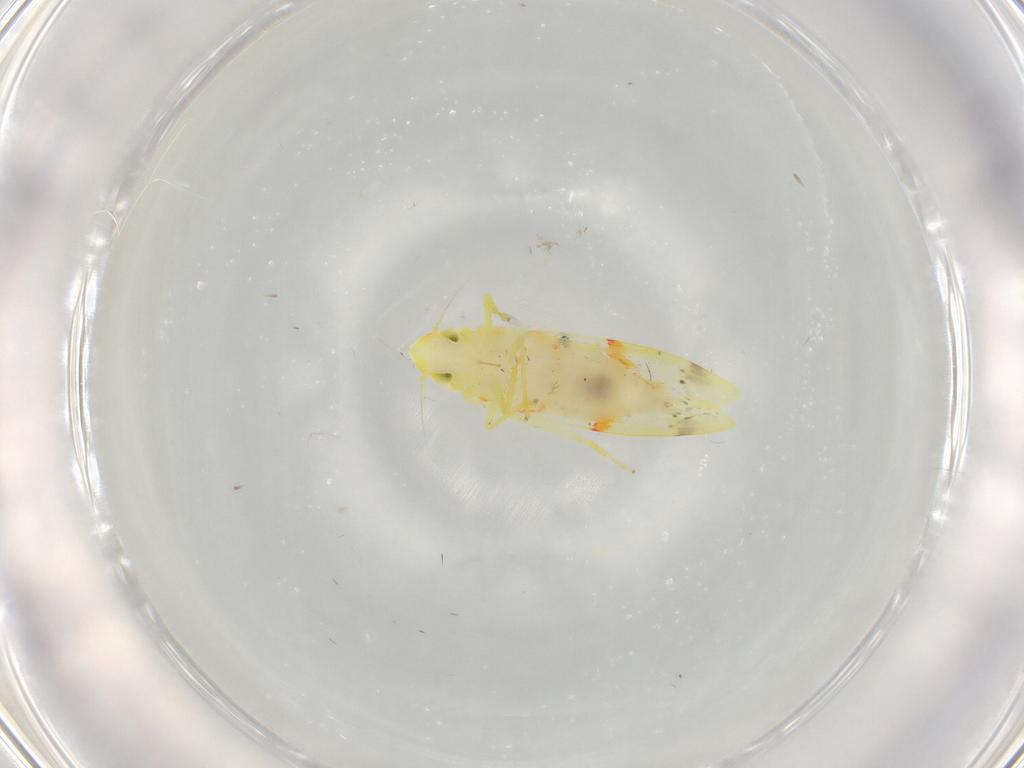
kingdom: Animalia
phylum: Arthropoda
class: Insecta
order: Hemiptera
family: Cicadellidae
